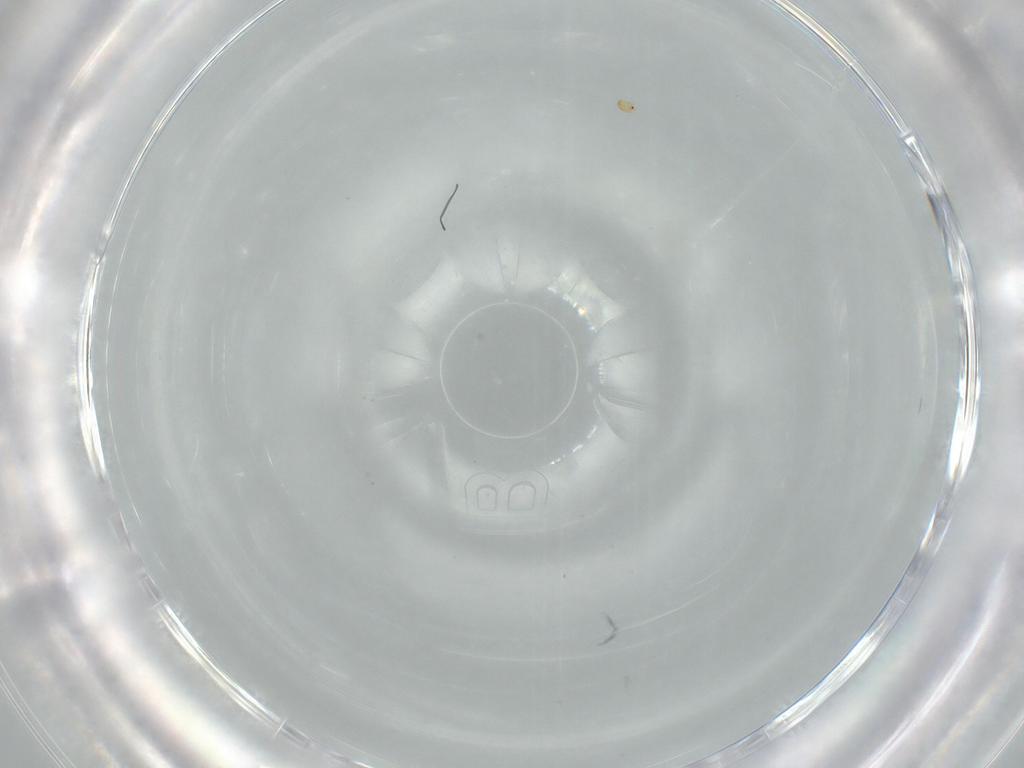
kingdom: Animalia
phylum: Arthropoda
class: Insecta
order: Diptera
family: Chironomidae
